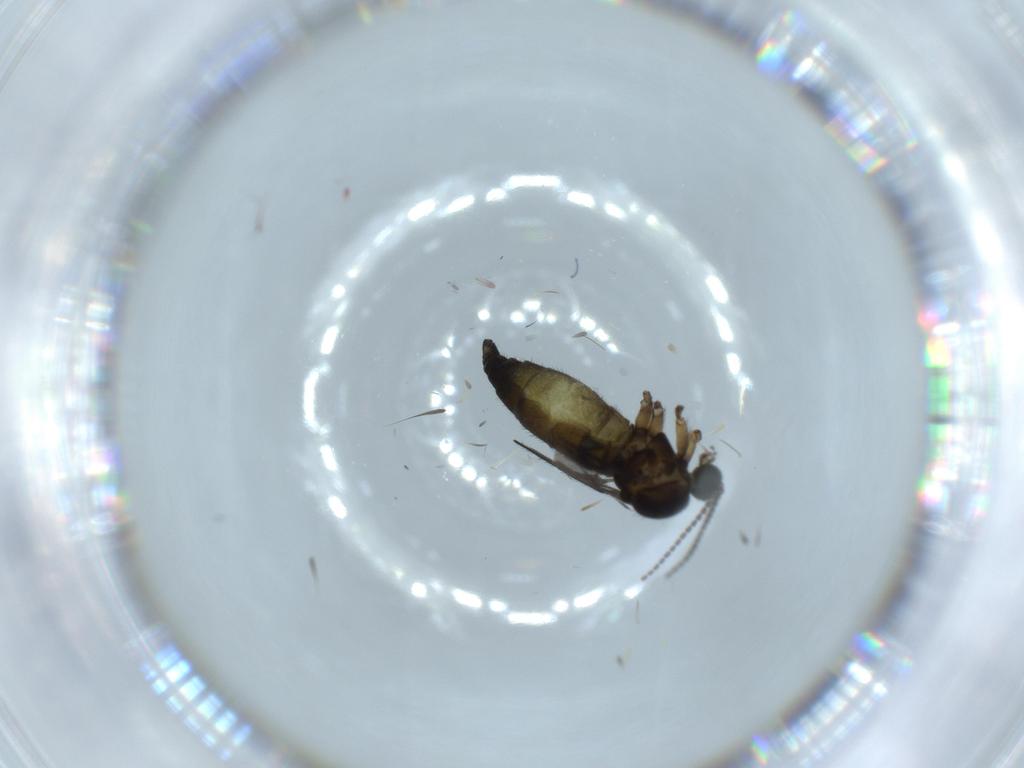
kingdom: Animalia
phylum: Arthropoda
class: Insecta
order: Diptera
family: Sciaridae
